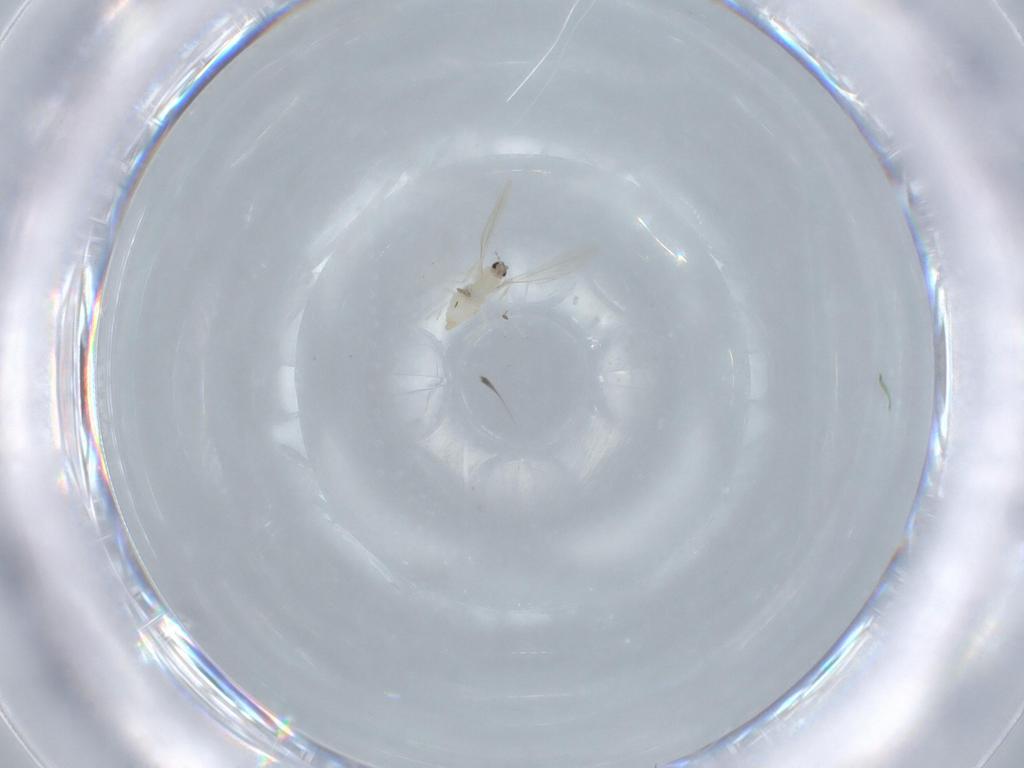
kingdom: Animalia
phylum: Arthropoda
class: Insecta
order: Diptera
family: Cecidomyiidae
